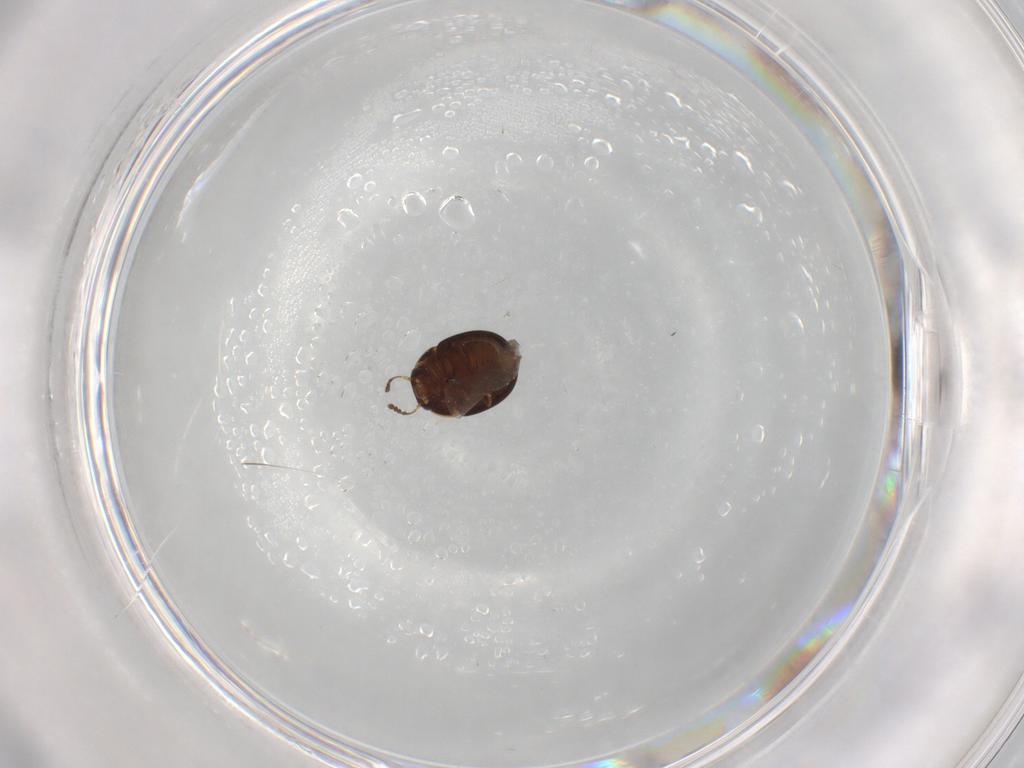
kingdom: Animalia
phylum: Arthropoda
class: Insecta
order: Coleoptera
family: Leiodidae
